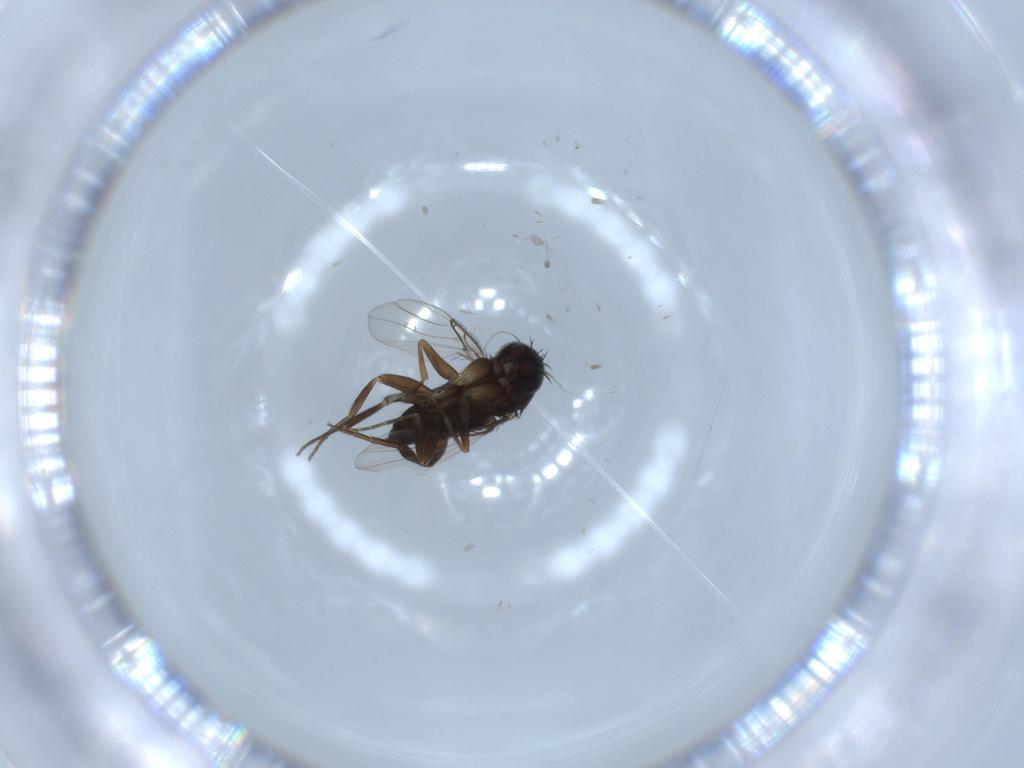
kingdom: Animalia
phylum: Arthropoda
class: Insecta
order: Diptera
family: Phoridae
